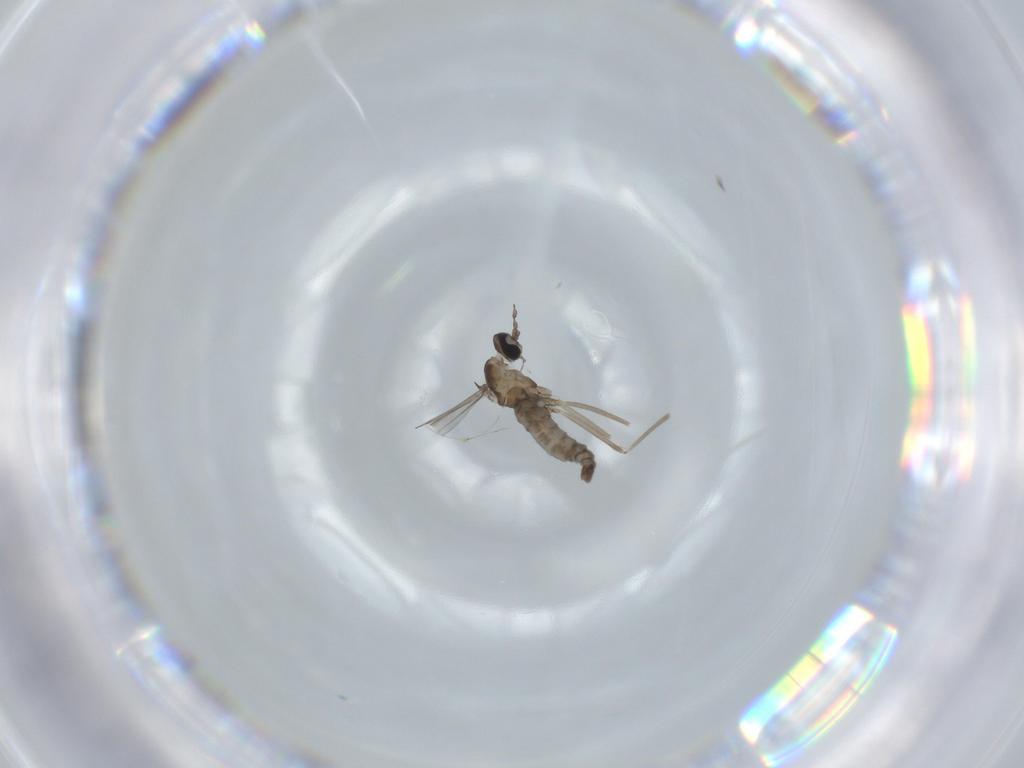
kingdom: Animalia
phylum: Arthropoda
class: Insecta
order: Diptera
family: Cecidomyiidae
